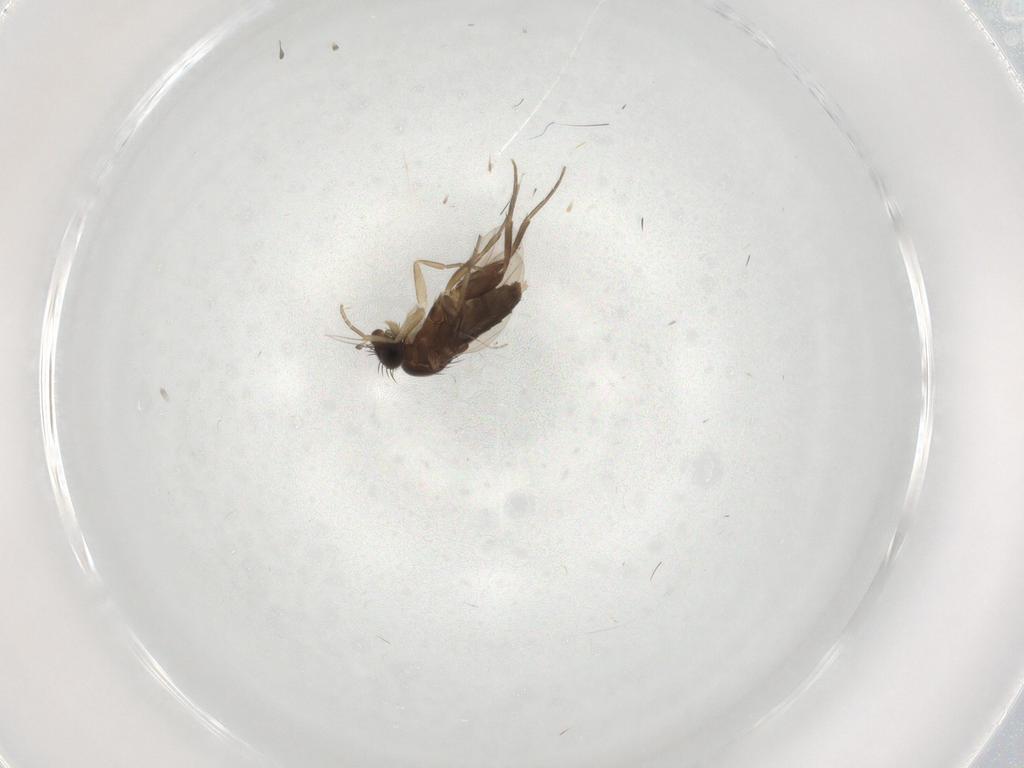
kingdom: Animalia
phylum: Arthropoda
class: Insecta
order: Diptera
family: Phoridae
